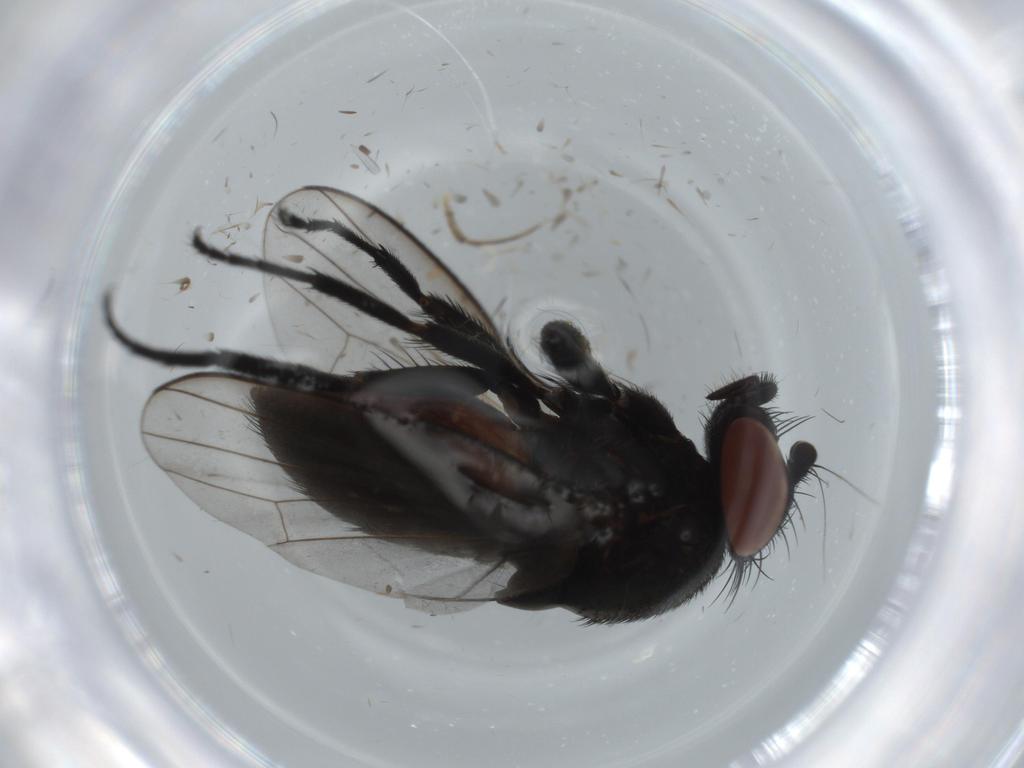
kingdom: Animalia
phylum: Arthropoda
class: Insecta
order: Diptera
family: Milichiidae
